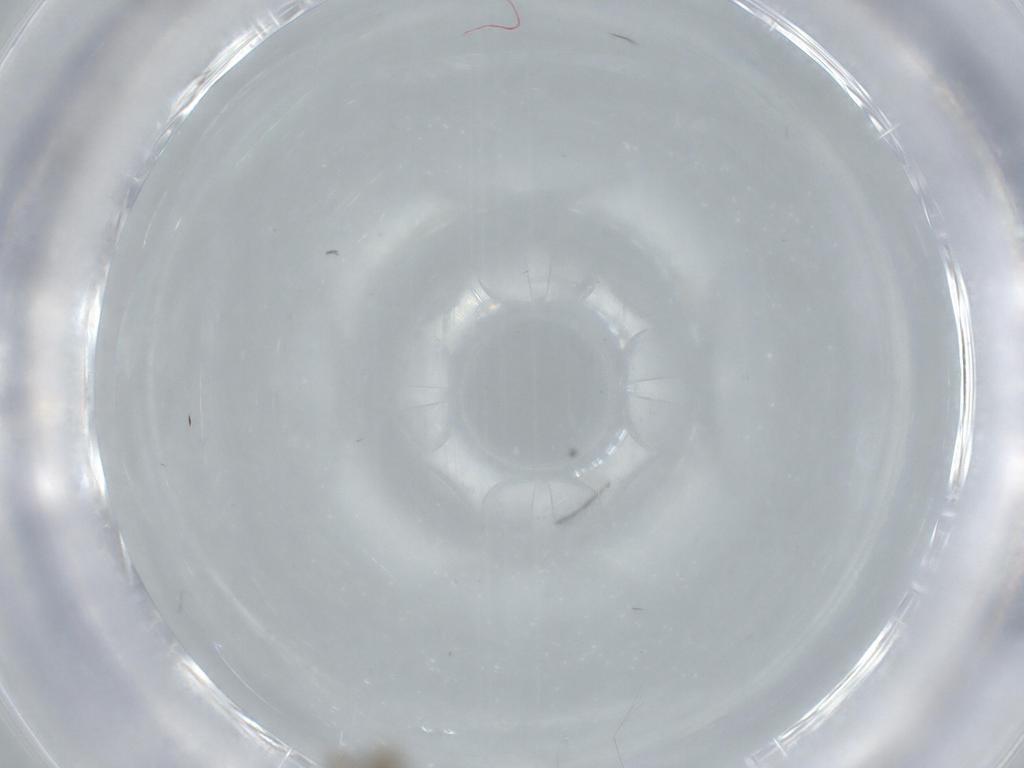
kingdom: Animalia
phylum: Arthropoda
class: Insecta
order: Diptera
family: Cecidomyiidae
